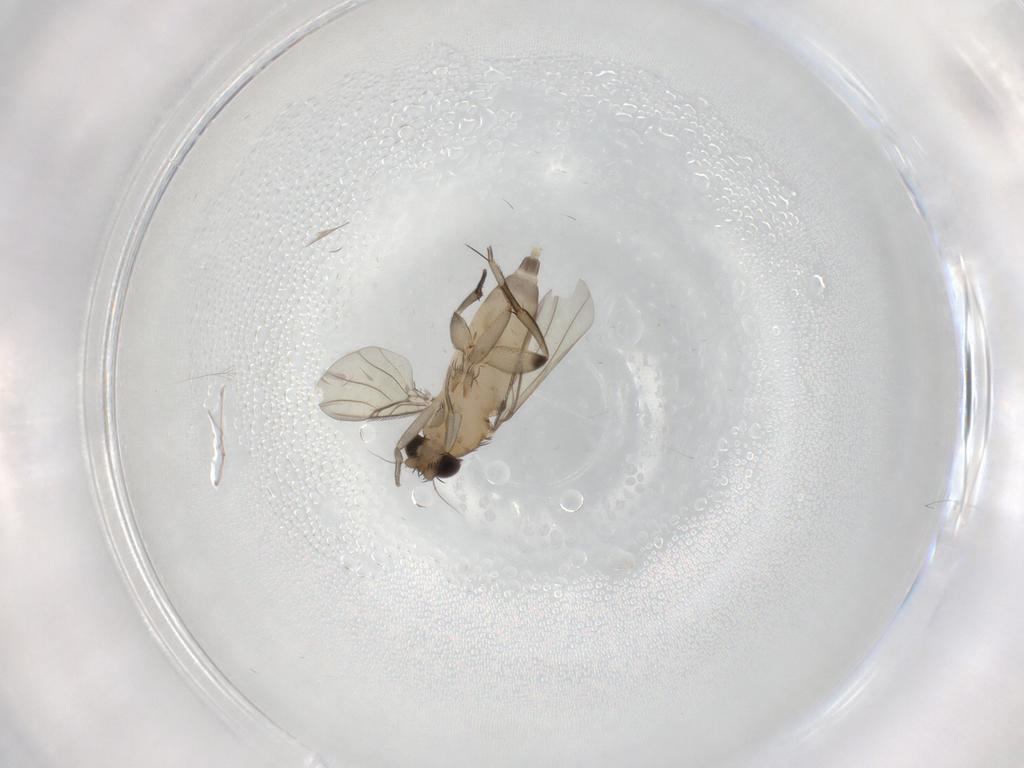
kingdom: Animalia
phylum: Arthropoda
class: Insecta
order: Diptera
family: Phoridae
